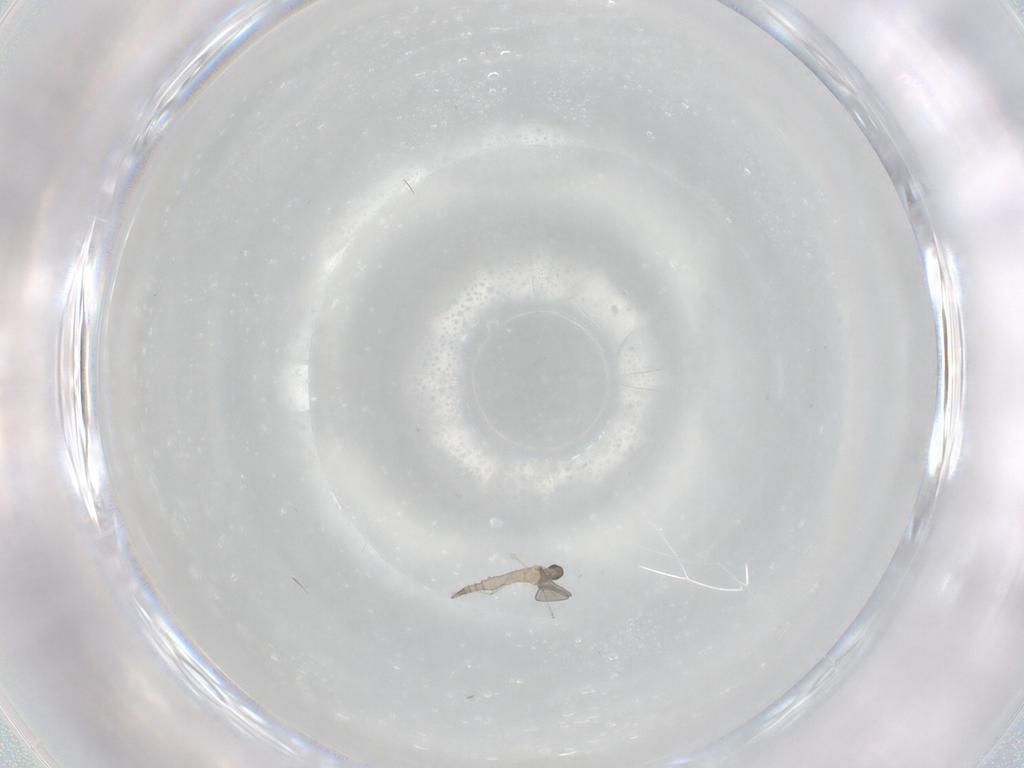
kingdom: Animalia
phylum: Arthropoda
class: Insecta
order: Diptera
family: Cecidomyiidae
